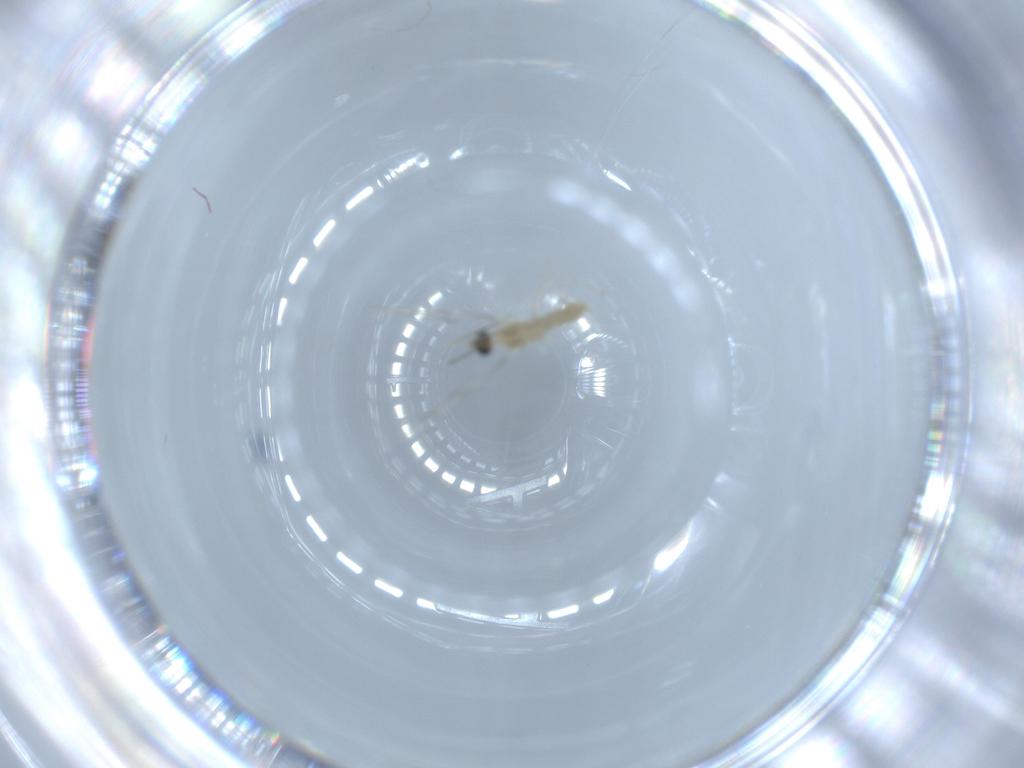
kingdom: Animalia
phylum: Arthropoda
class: Insecta
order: Diptera
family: Cecidomyiidae
